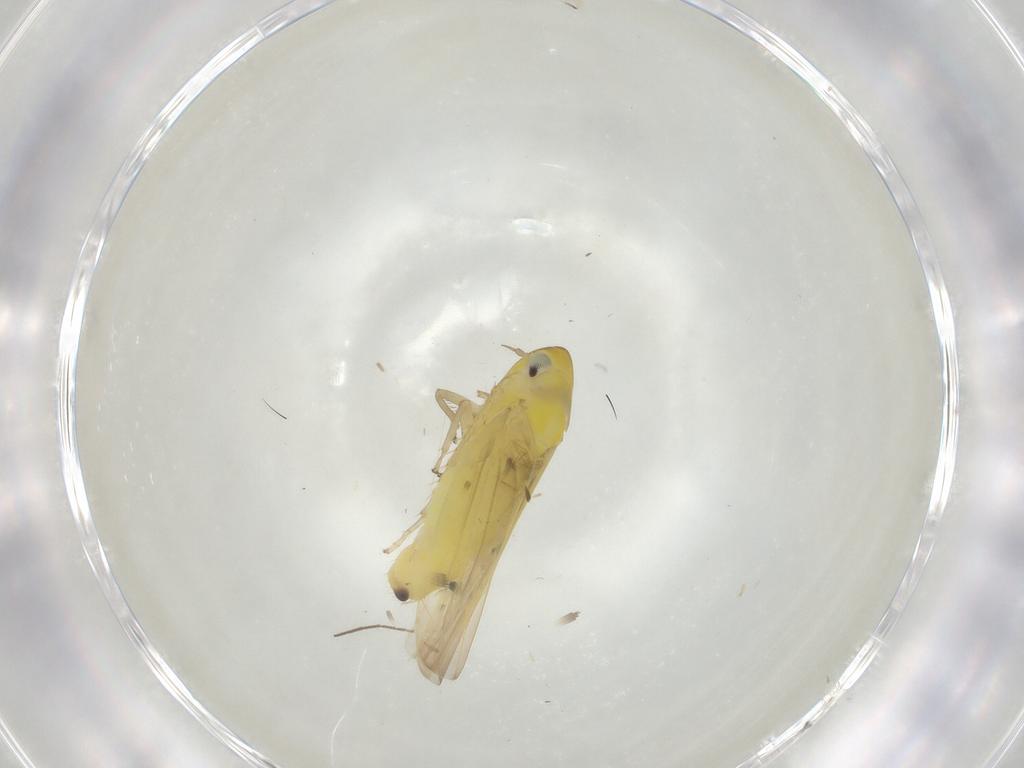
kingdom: Animalia
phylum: Arthropoda
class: Insecta
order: Hemiptera
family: Cicadellidae
